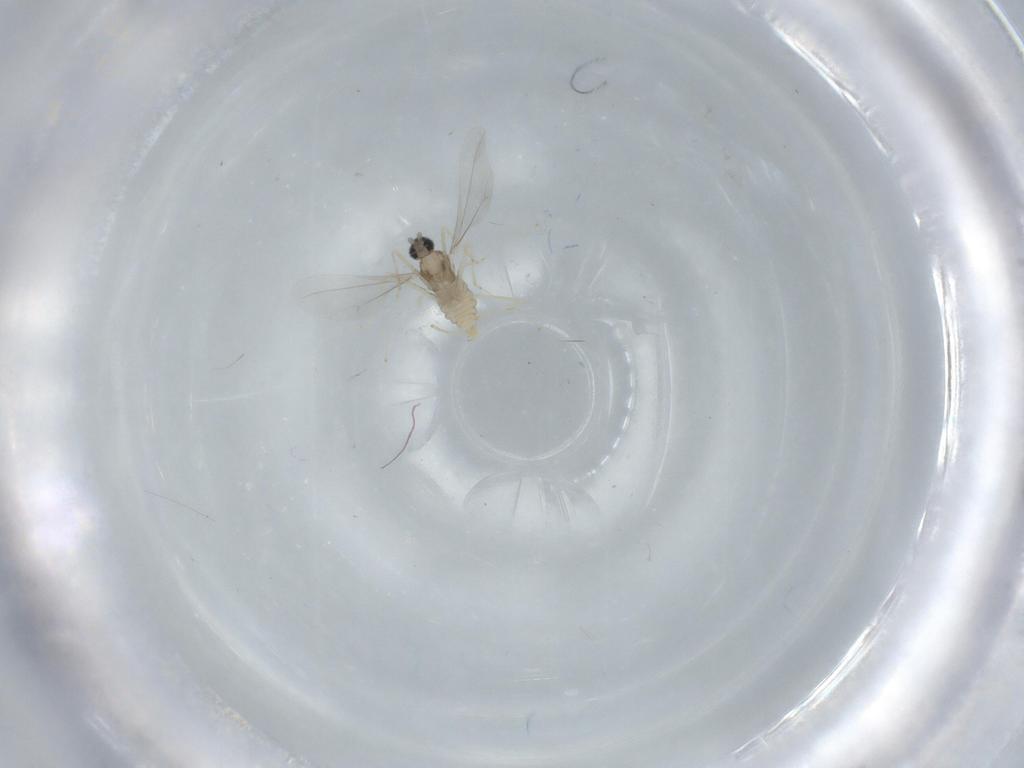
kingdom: Animalia
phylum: Arthropoda
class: Insecta
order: Diptera
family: Cecidomyiidae
